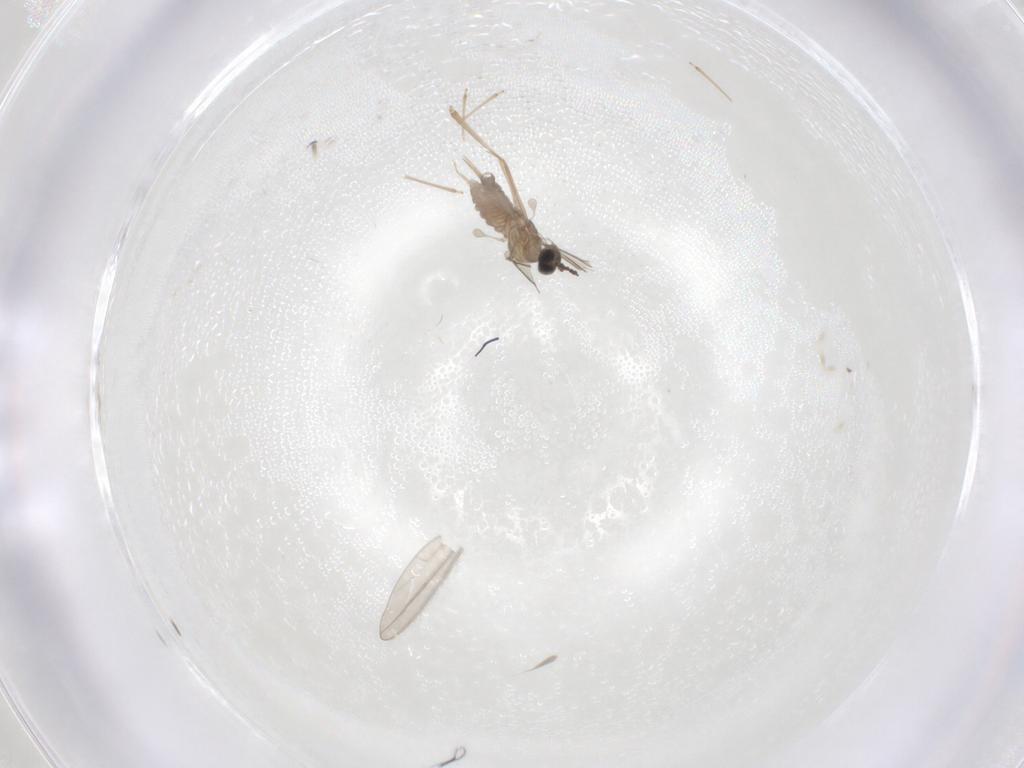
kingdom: Animalia
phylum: Arthropoda
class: Insecta
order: Diptera
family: Cecidomyiidae
